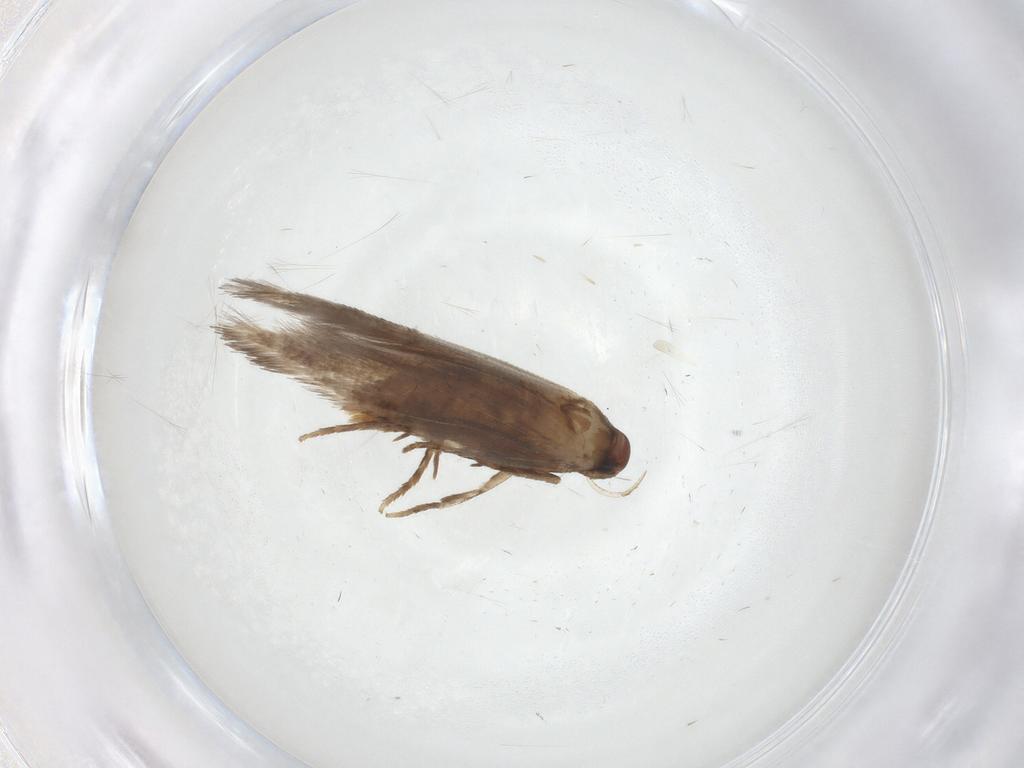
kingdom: Animalia
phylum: Arthropoda
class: Insecta
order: Lepidoptera
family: Gelechiidae
